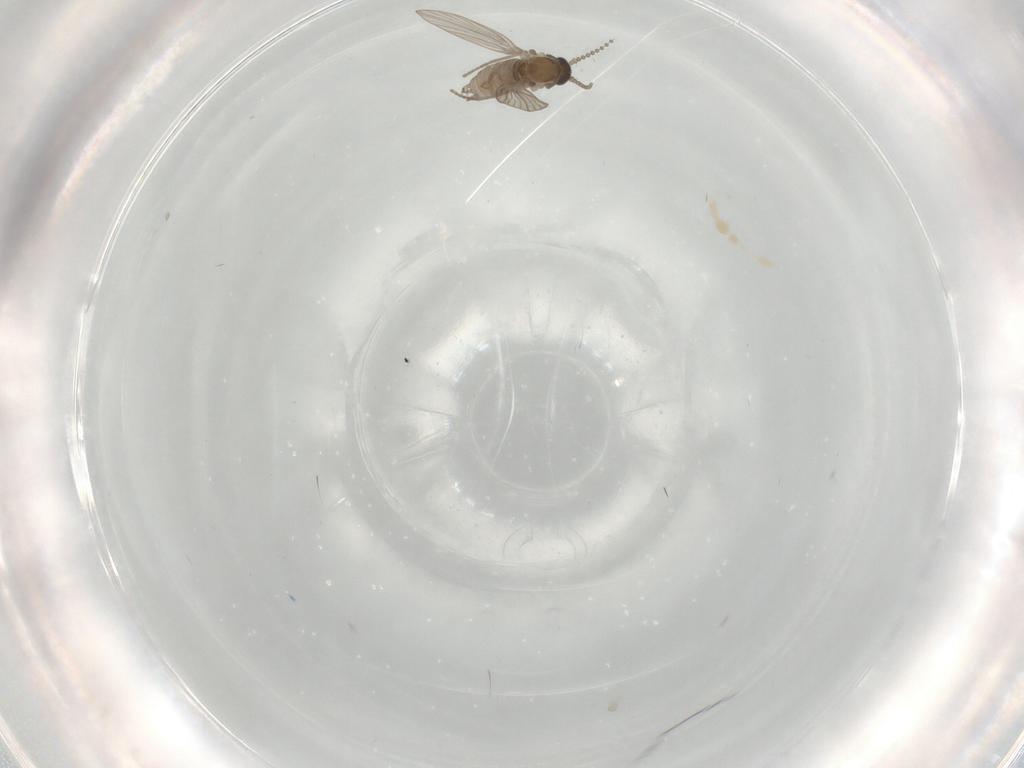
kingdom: Animalia
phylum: Arthropoda
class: Insecta
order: Diptera
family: Psychodidae
